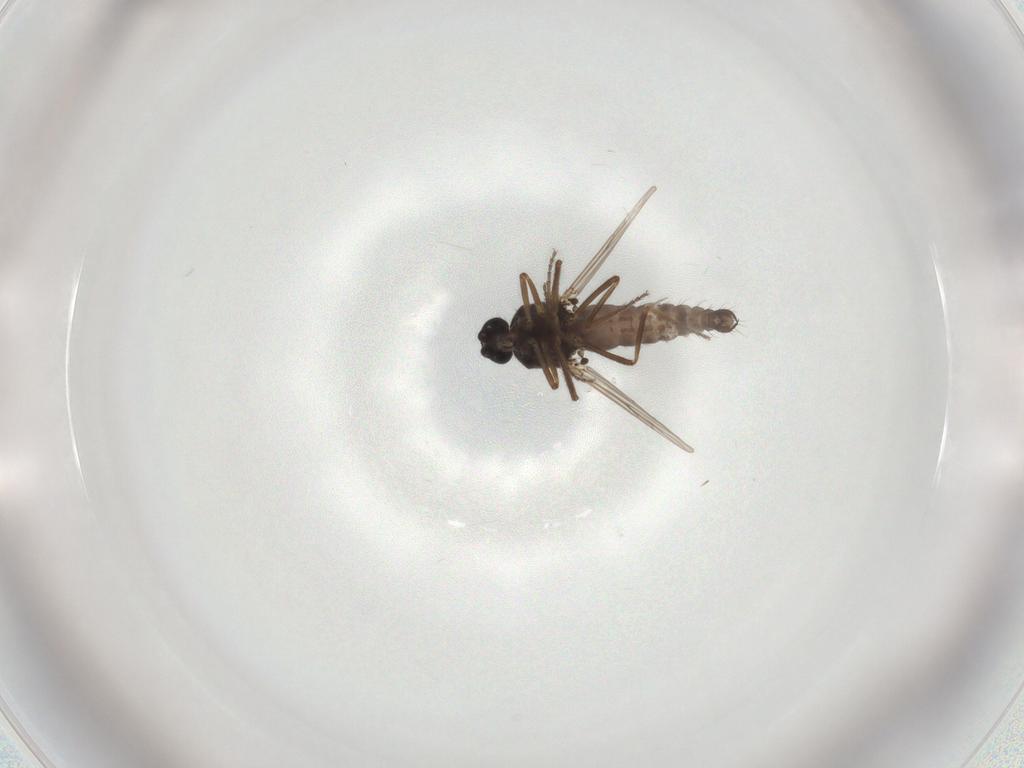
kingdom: Animalia
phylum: Arthropoda
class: Insecta
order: Diptera
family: Ceratopogonidae
